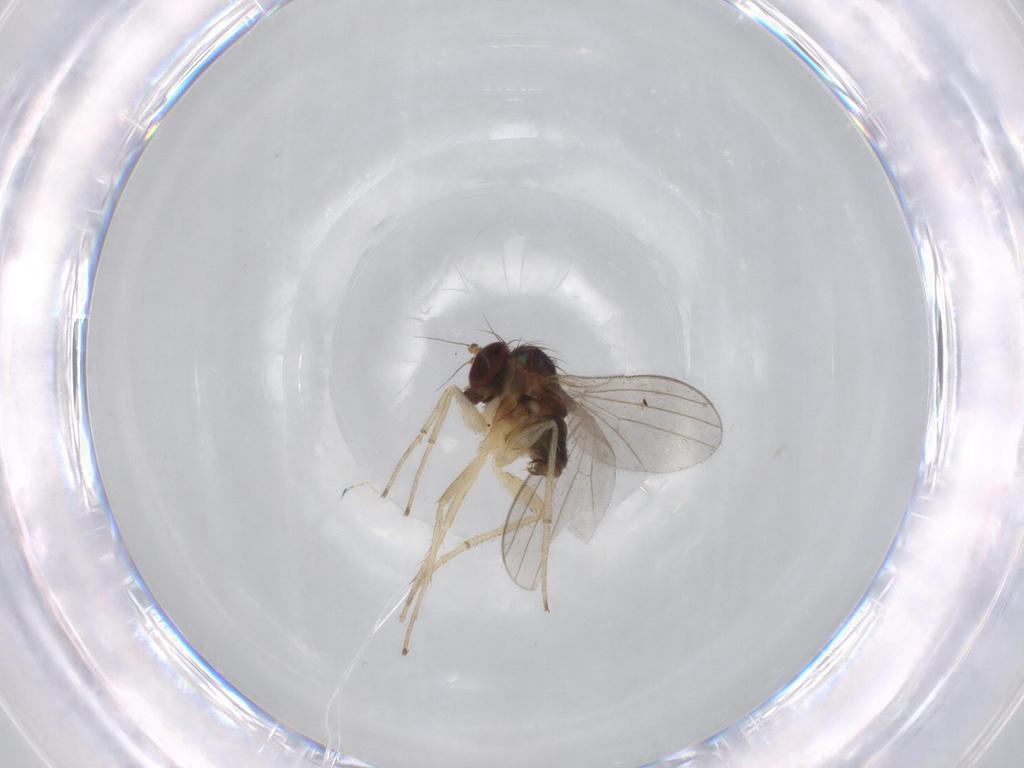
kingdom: Animalia
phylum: Arthropoda
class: Insecta
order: Diptera
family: Dolichopodidae
